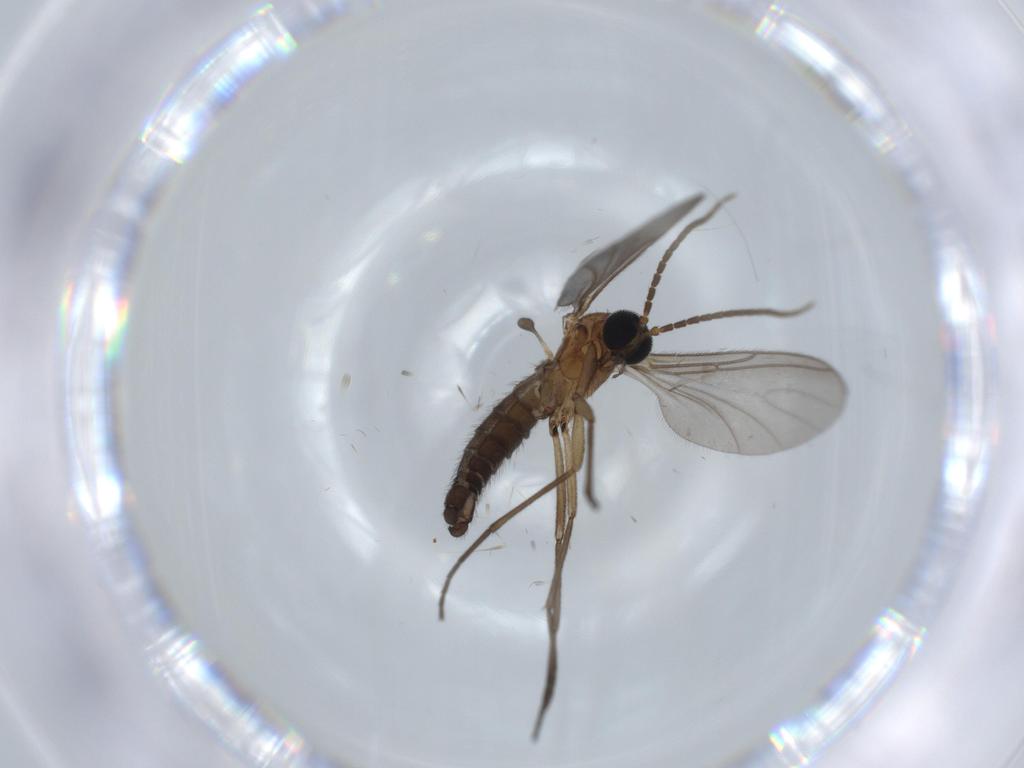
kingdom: Animalia
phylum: Arthropoda
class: Insecta
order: Diptera
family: Sciaridae
